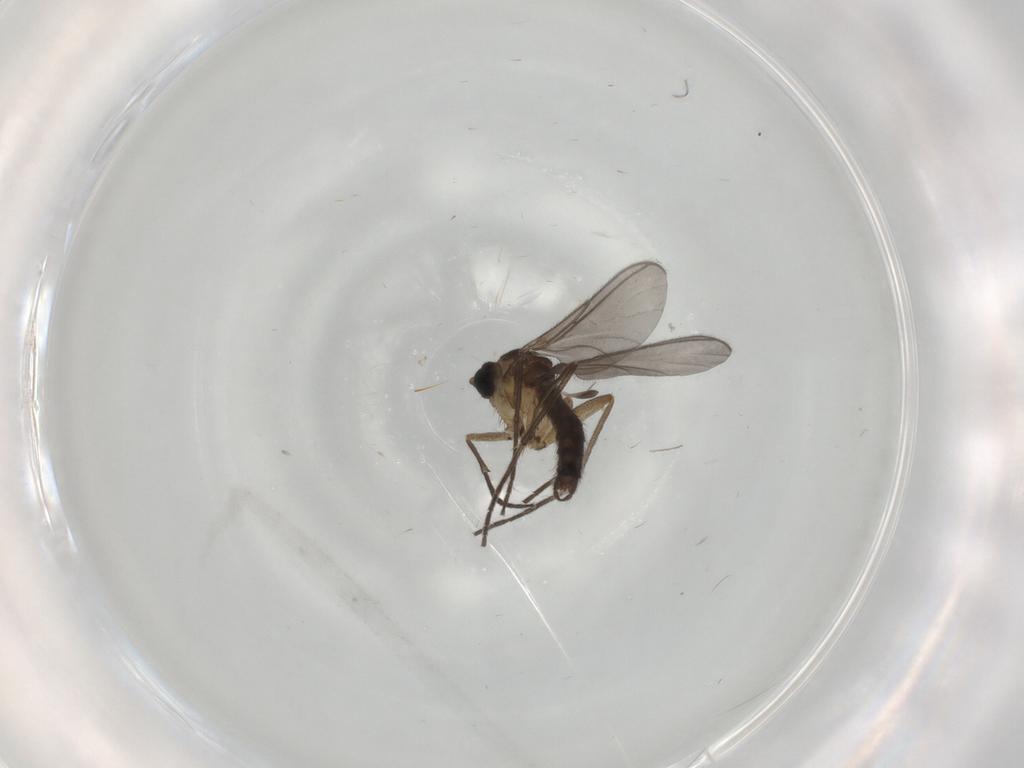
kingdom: Animalia
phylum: Arthropoda
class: Insecta
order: Diptera
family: Sciaridae
